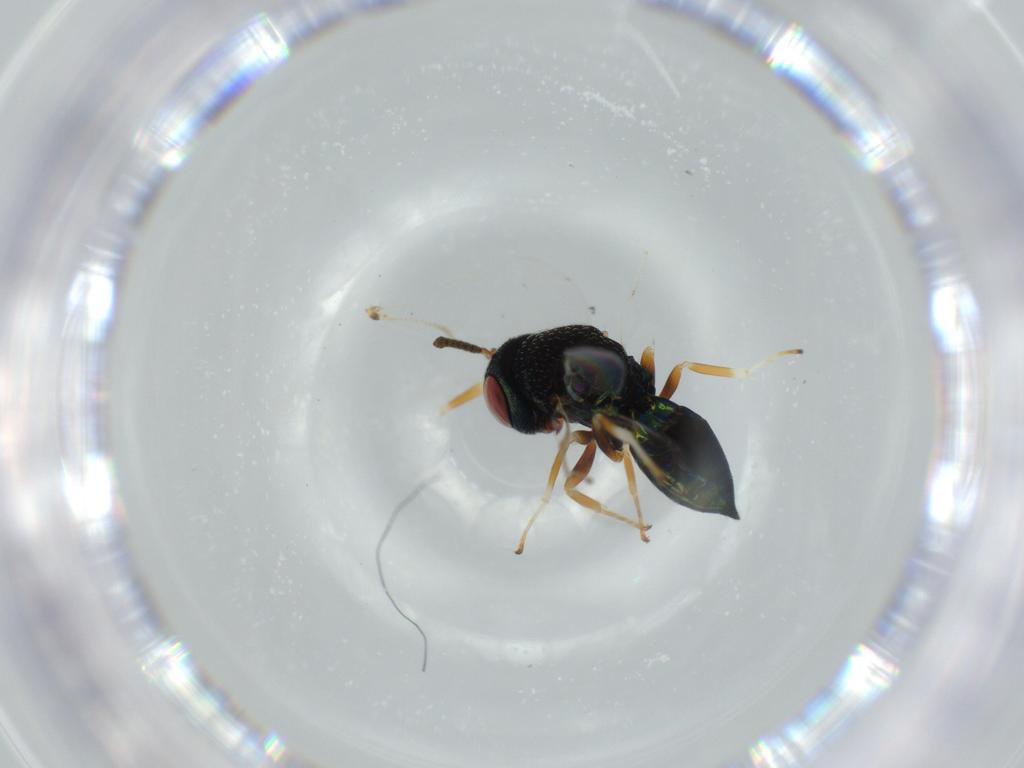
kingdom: Animalia
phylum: Arthropoda
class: Insecta
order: Hymenoptera
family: Encyrtidae
